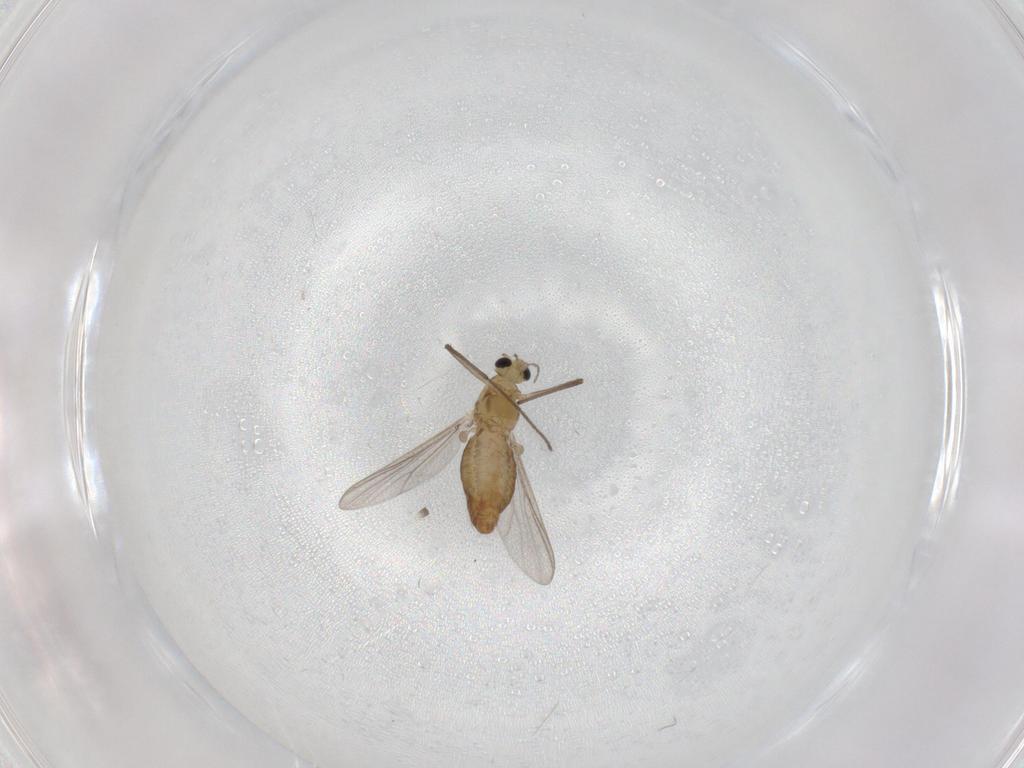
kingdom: Animalia
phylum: Arthropoda
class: Insecta
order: Diptera
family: Chironomidae
